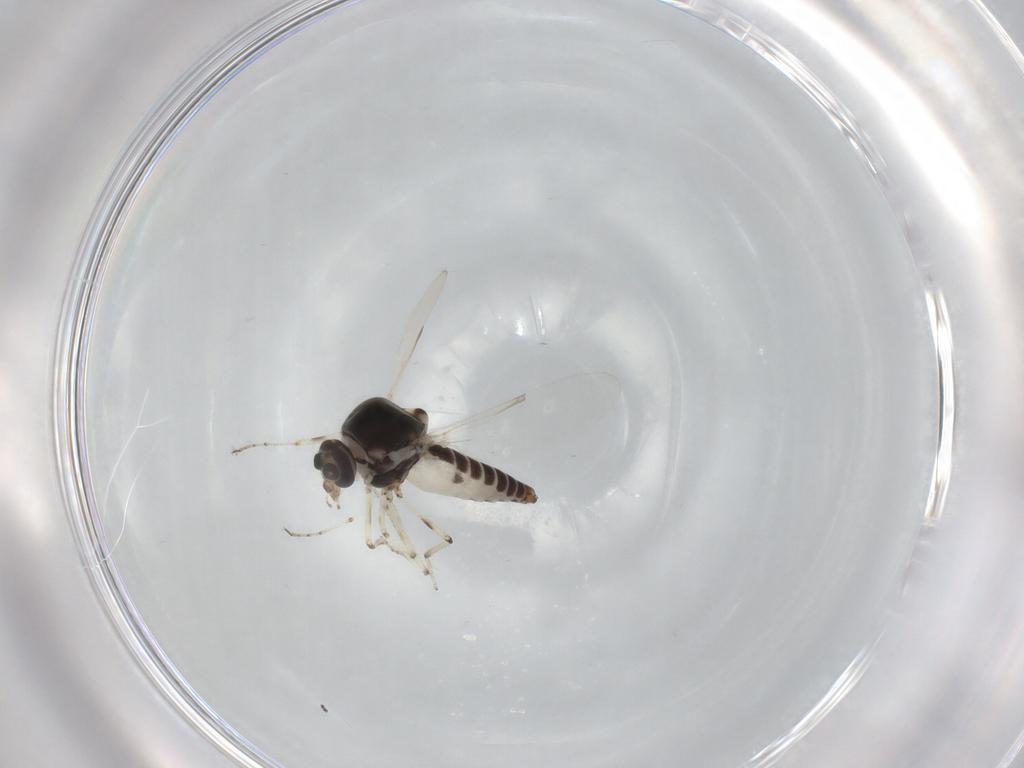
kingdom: Animalia
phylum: Arthropoda
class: Insecta
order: Diptera
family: Ceratopogonidae
